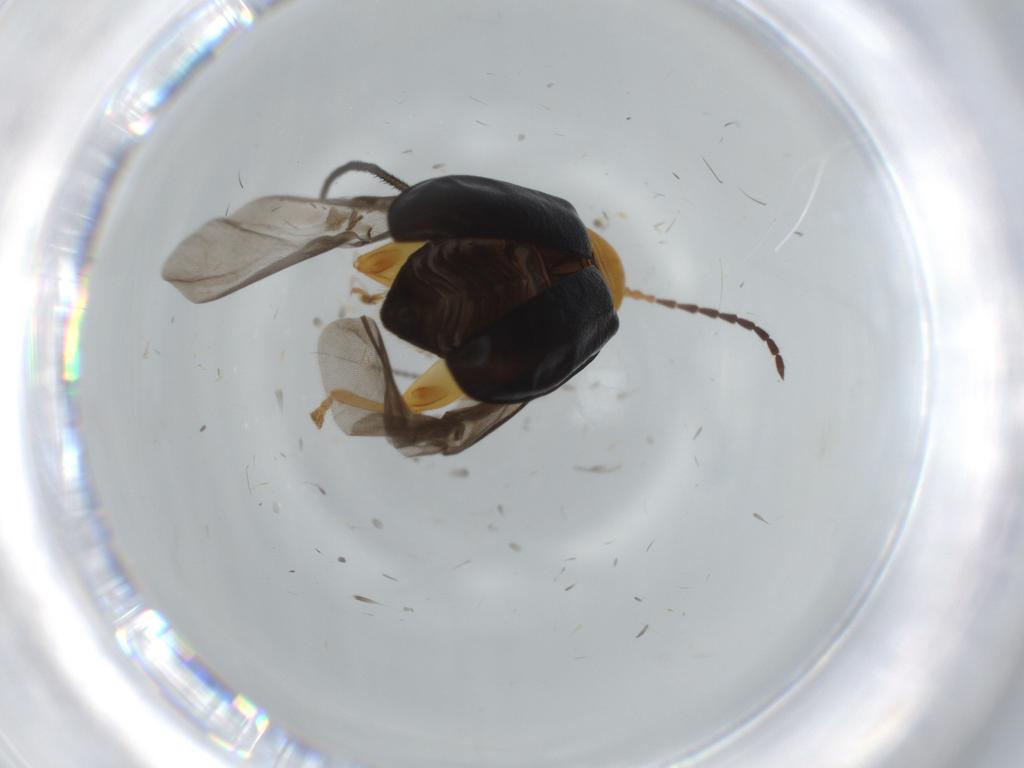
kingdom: Animalia
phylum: Arthropoda
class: Insecta
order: Coleoptera
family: Chrysomelidae
